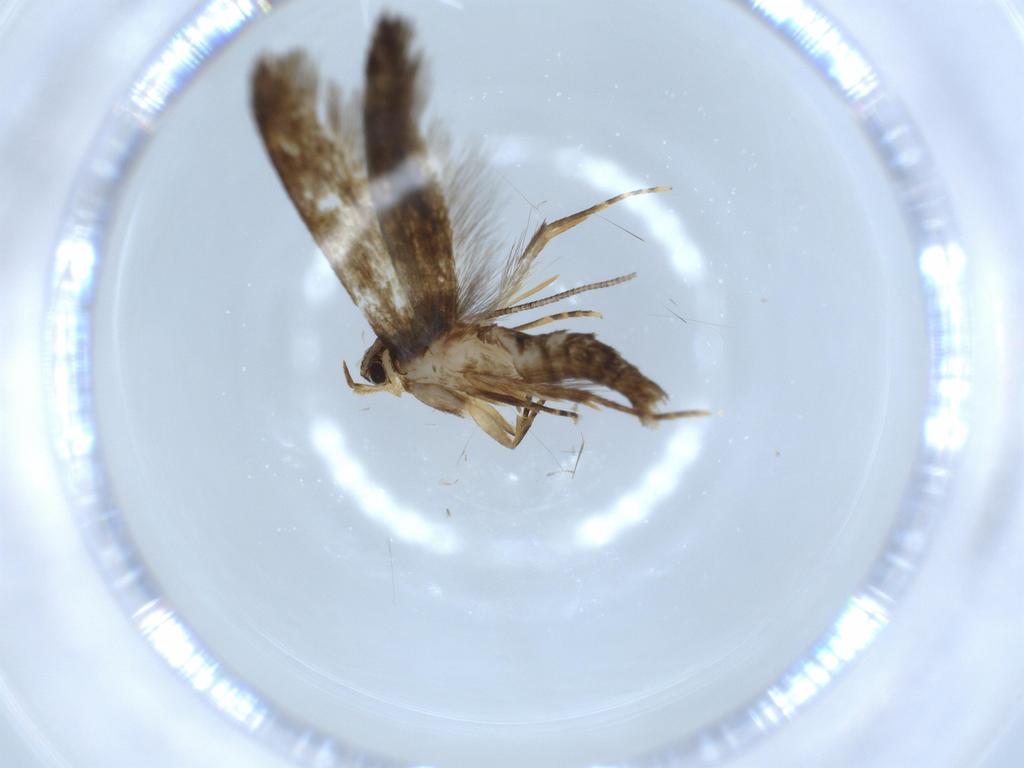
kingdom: Animalia
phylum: Arthropoda
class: Insecta
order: Lepidoptera
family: Tineidae
